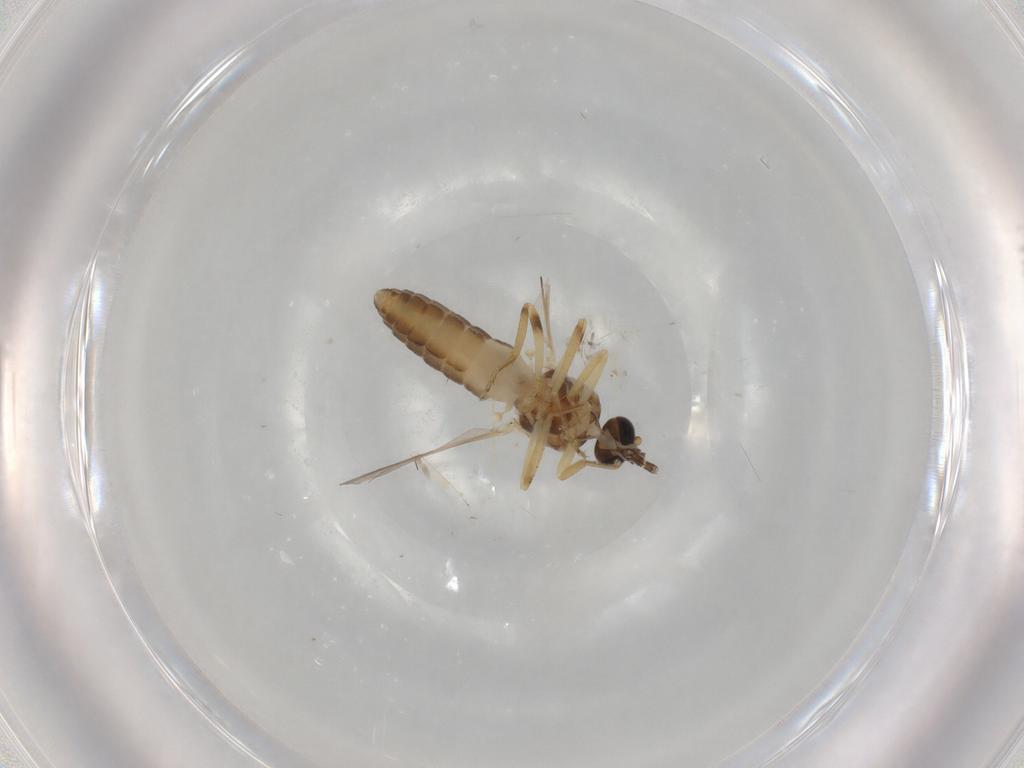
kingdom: Animalia
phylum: Arthropoda
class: Insecta
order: Diptera
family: Ceratopogonidae
